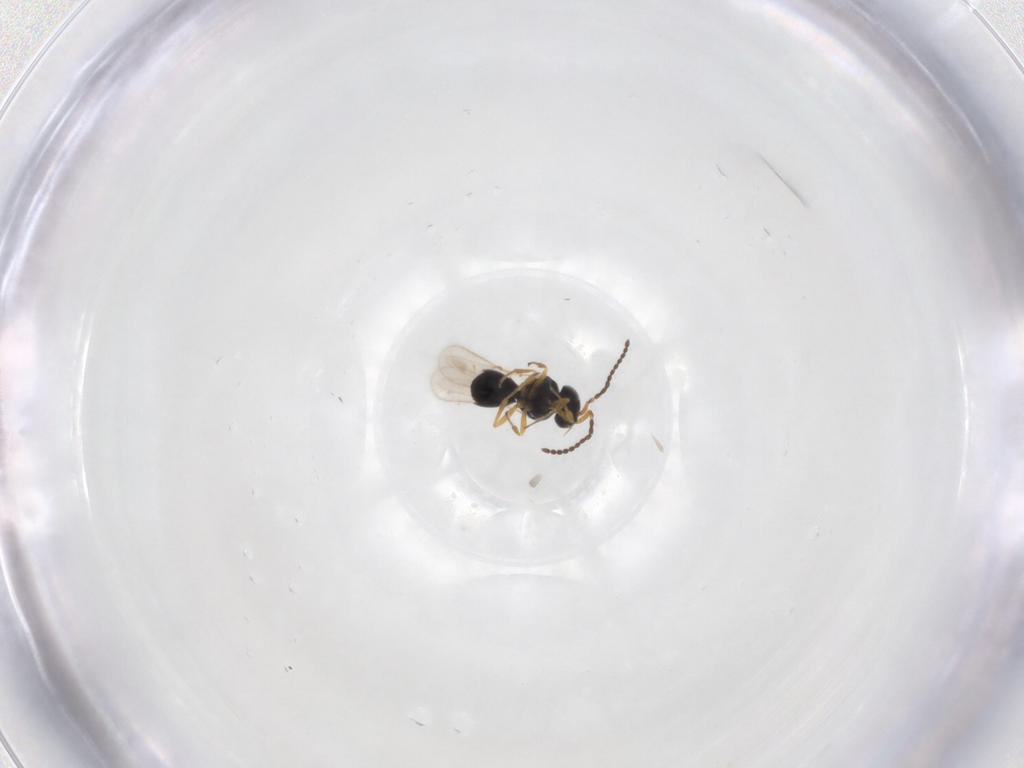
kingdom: Animalia
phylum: Arthropoda
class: Insecta
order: Hymenoptera
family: Scelionidae
